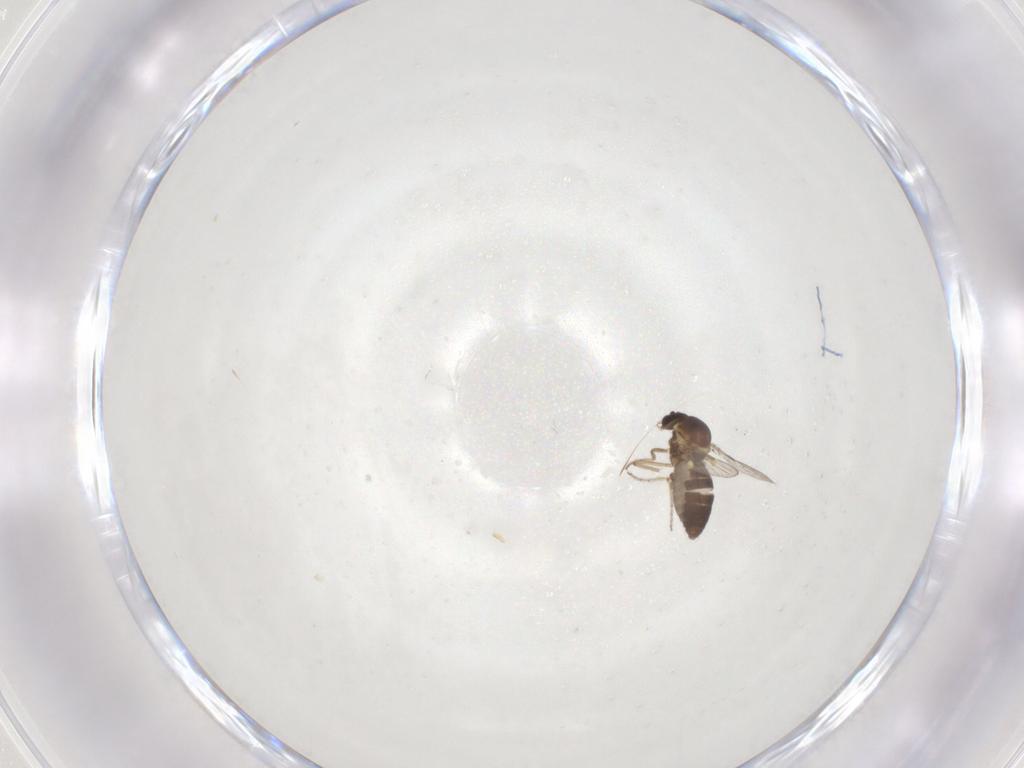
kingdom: Animalia
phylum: Arthropoda
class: Insecta
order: Diptera
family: Ceratopogonidae
